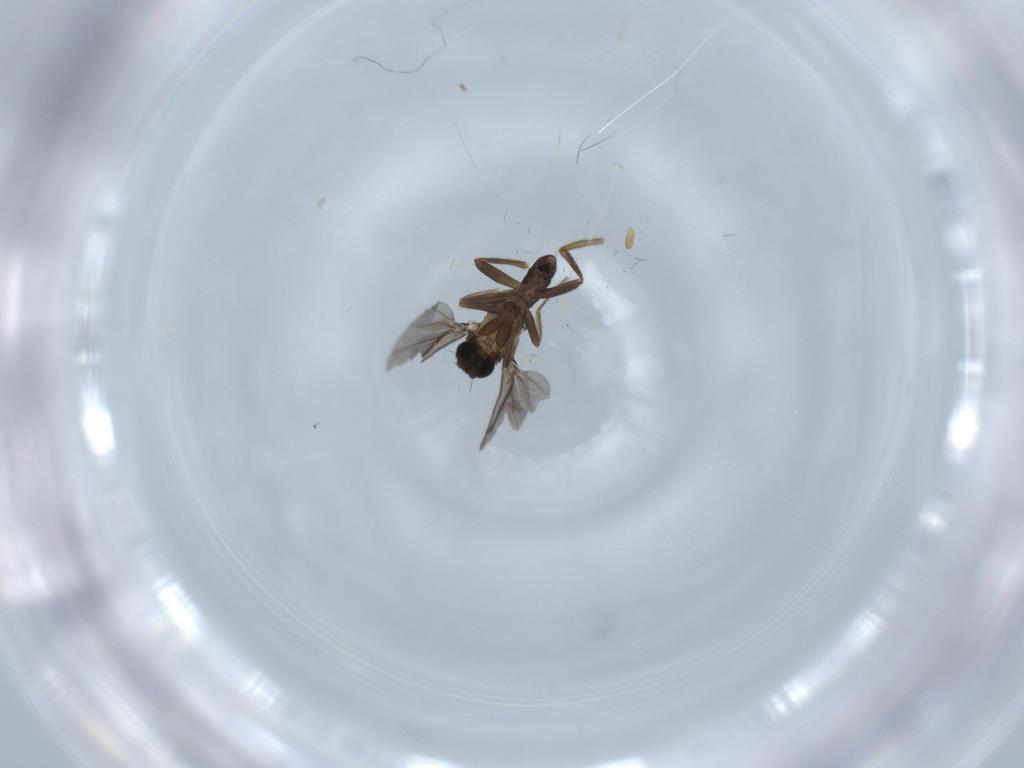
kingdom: Animalia
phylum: Arthropoda
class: Insecta
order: Diptera
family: Phoridae
